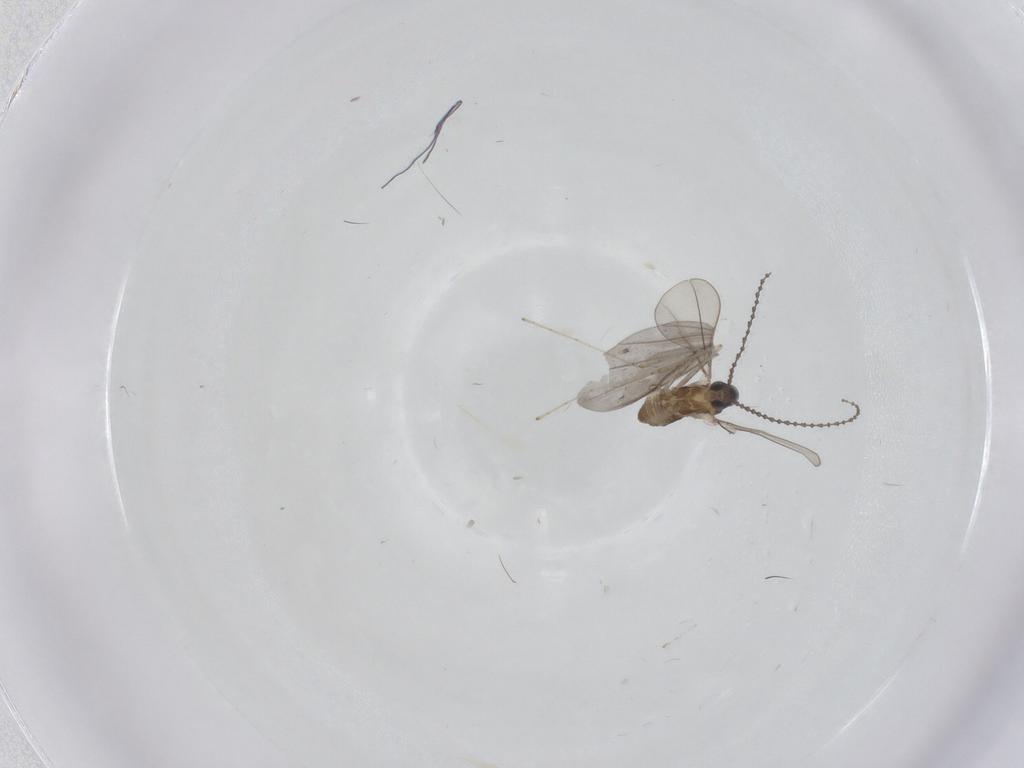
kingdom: Animalia
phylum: Arthropoda
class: Insecta
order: Diptera
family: Cecidomyiidae
